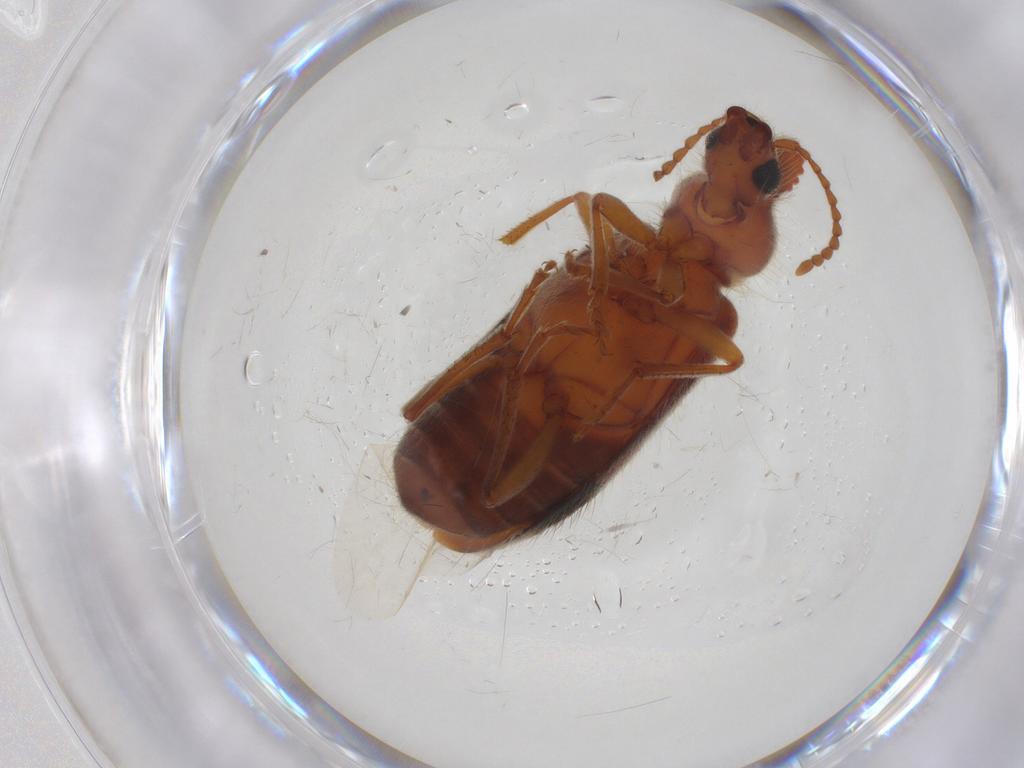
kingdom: Animalia
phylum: Arthropoda
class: Insecta
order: Coleoptera
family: Anthicidae
